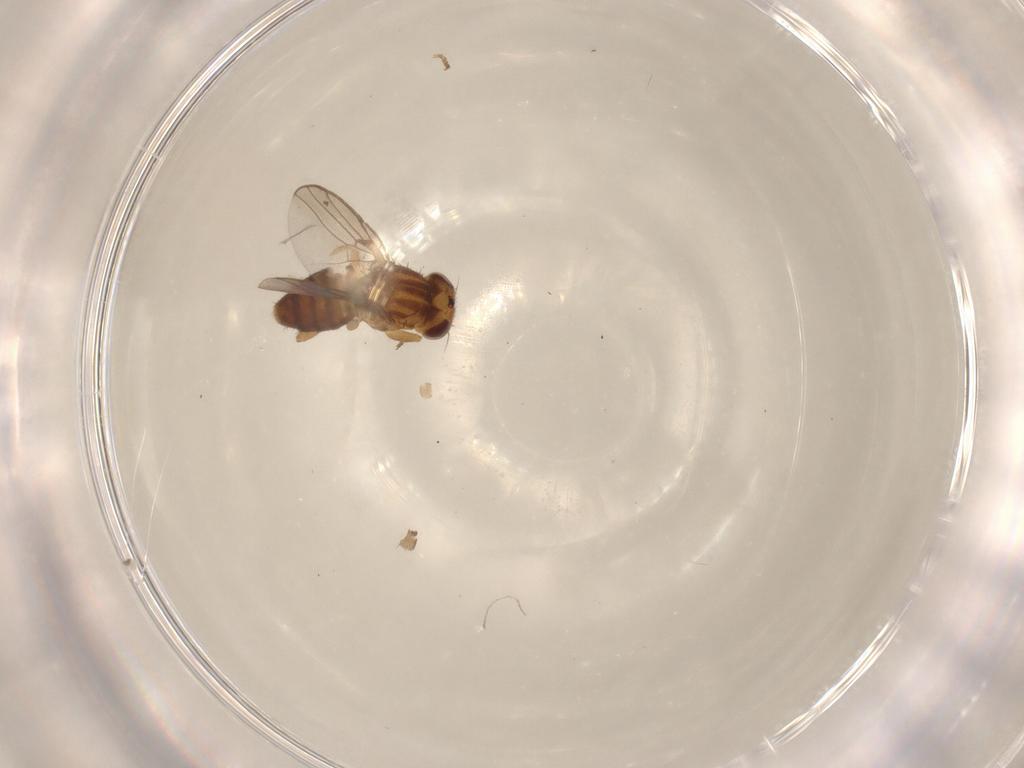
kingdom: Animalia
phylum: Arthropoda
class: Insecta
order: Diptera
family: Chloropidae
